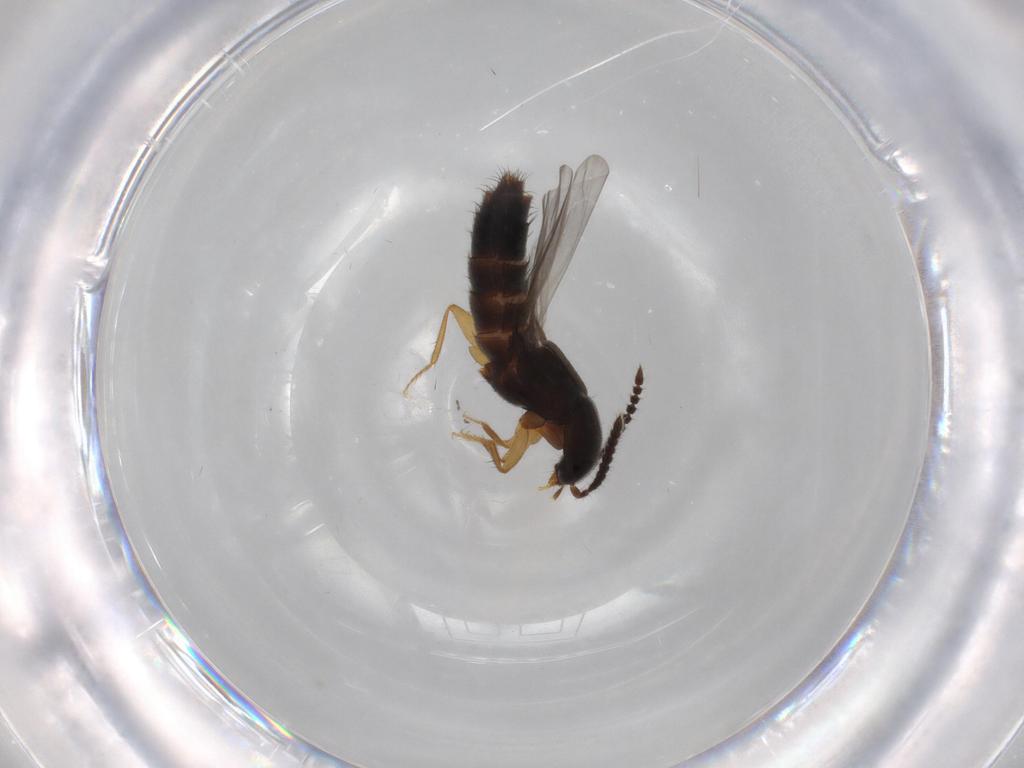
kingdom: Animalia
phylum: Arthropoda
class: Insecta
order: Coleoptera
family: Staphylinidae
